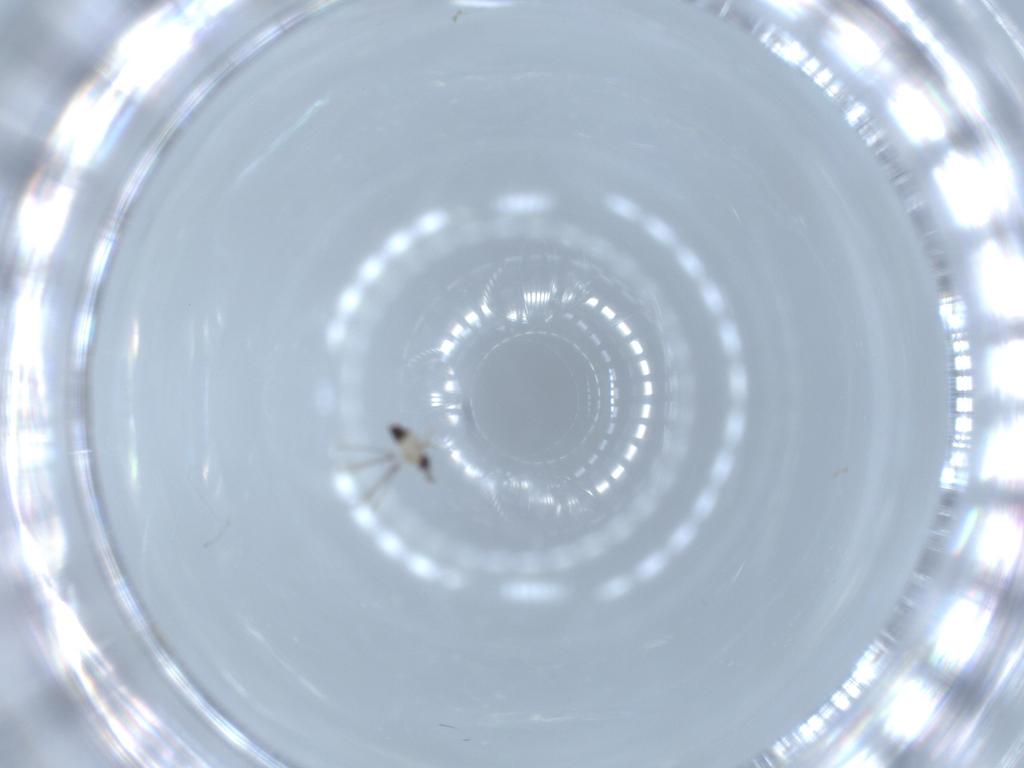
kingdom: Animalia
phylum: Arthropoda
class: Insecta
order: Hymenoptera
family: Mymaridae
